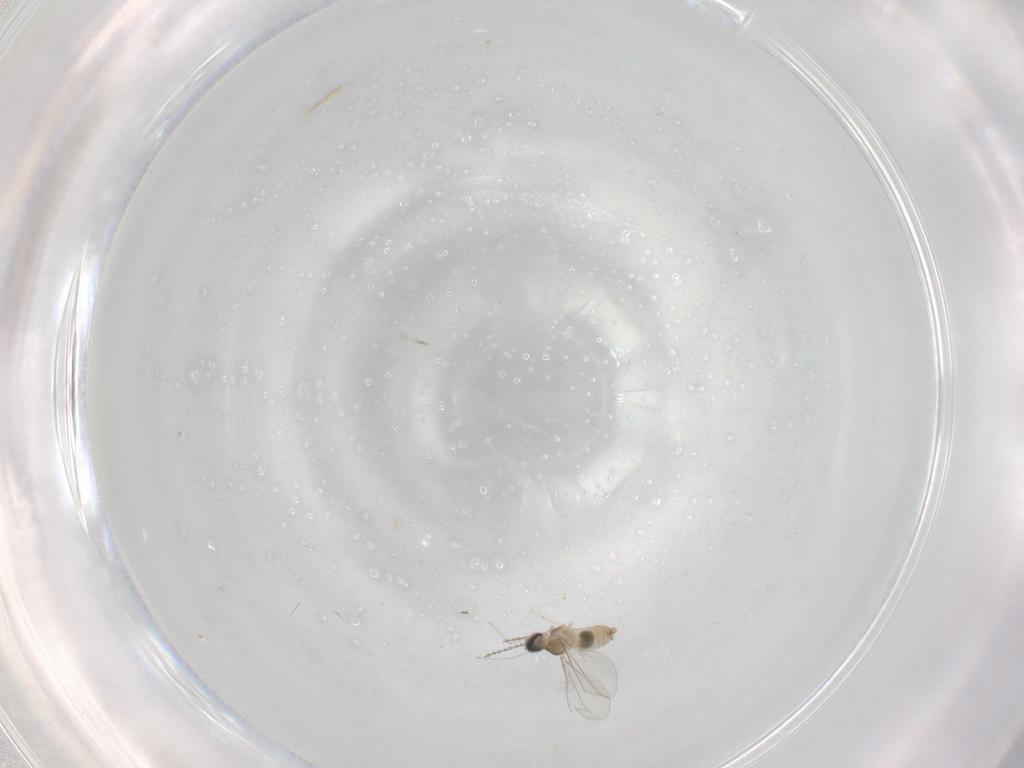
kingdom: Animalia
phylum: Arthropoda
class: Insecta
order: Diptera
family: Cecidomyiidae
